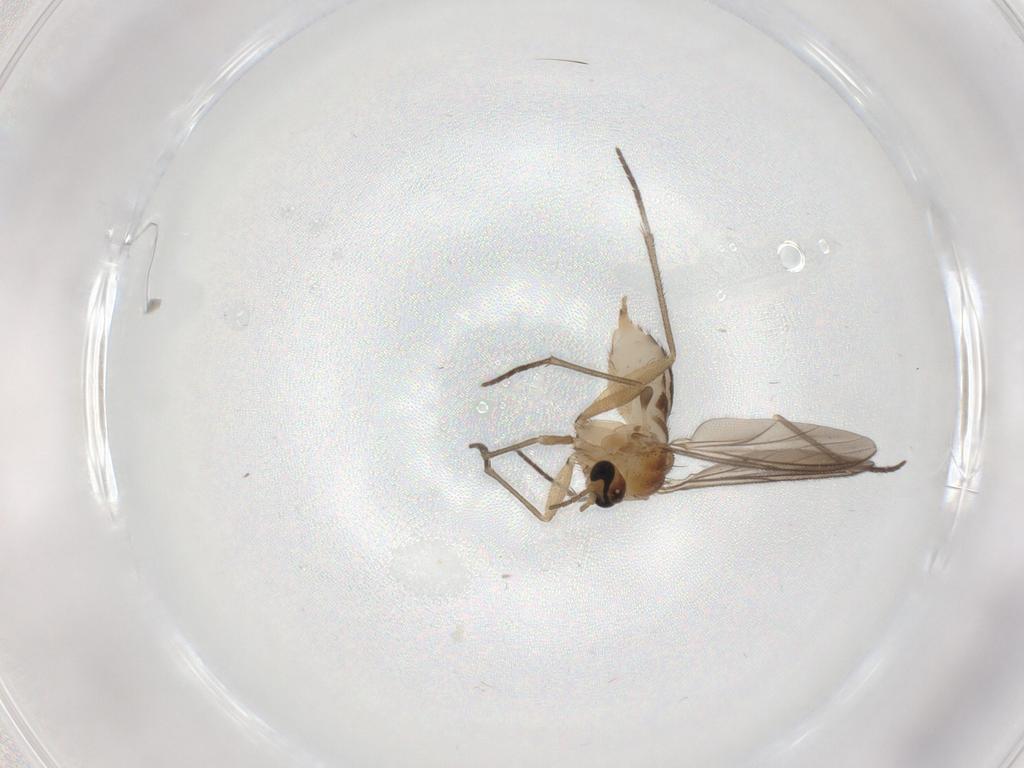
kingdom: Animalia
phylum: Arthropoda
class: Insecta
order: Diptera
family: Sciaridae
